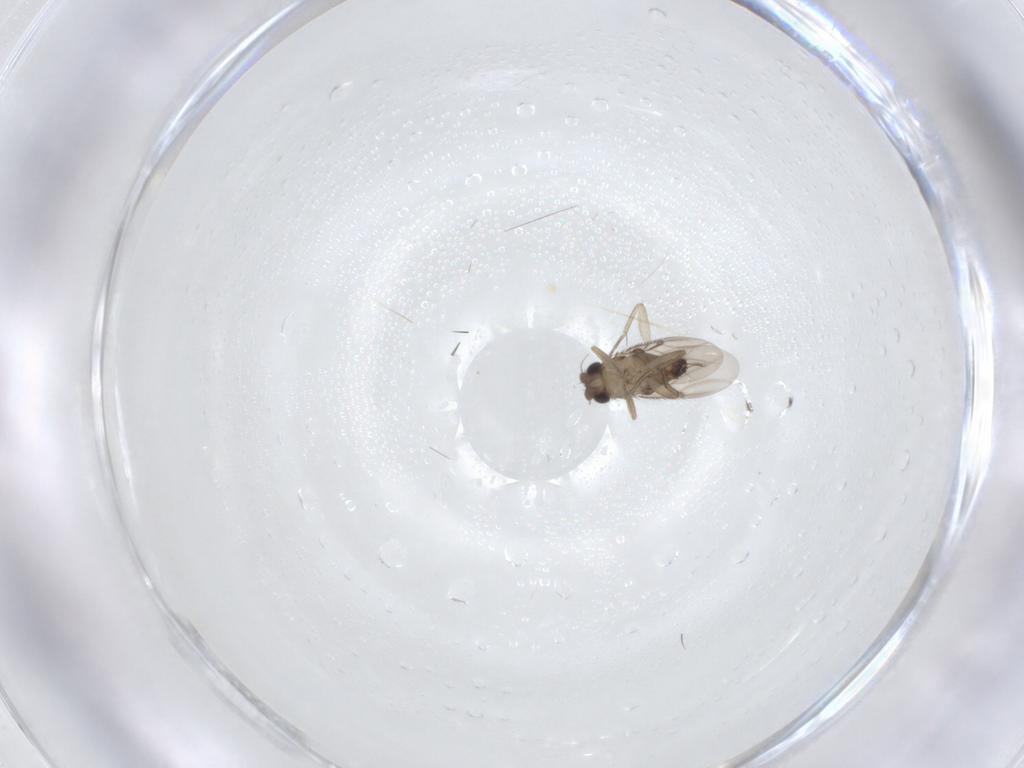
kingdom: Animalia
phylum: Arthropoda
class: Insecta
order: Diptera
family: Phoridae
